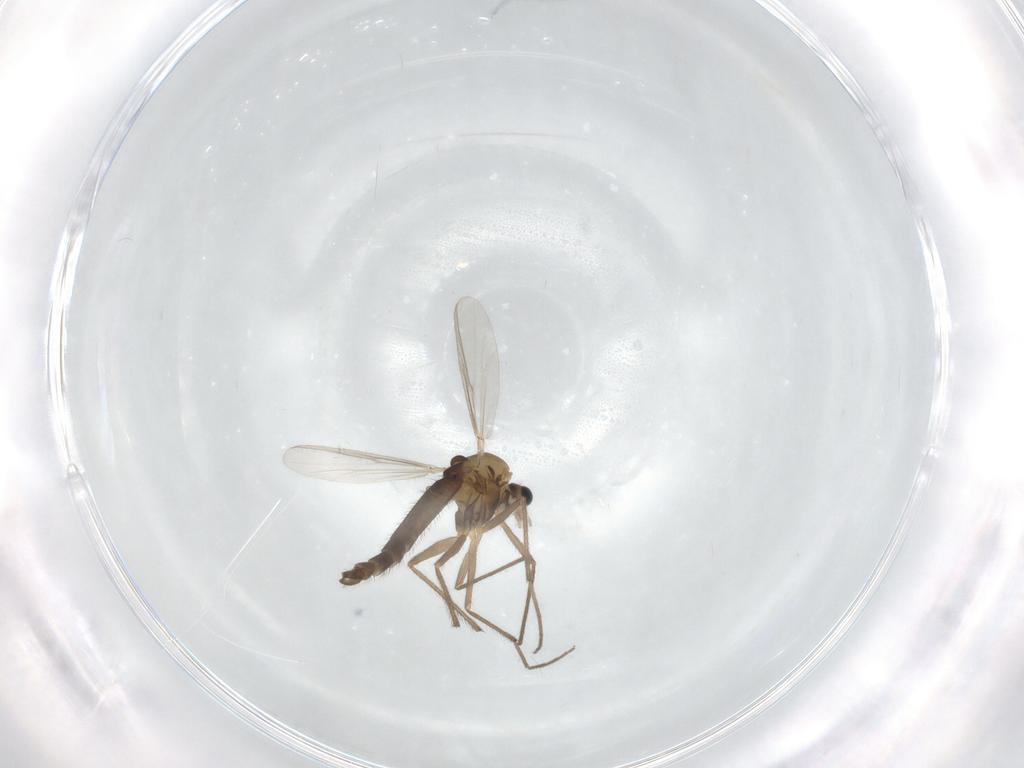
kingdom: Animalia
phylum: Arthropoda
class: Insecta
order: Diptera
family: Chironomidae
